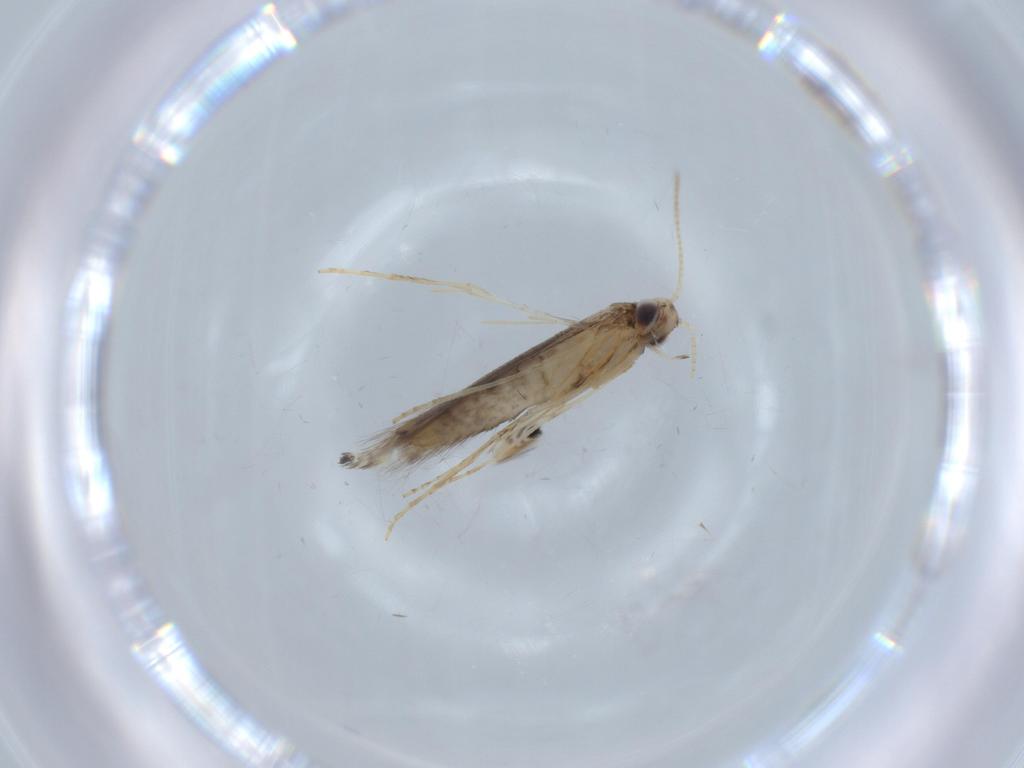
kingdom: Animalia
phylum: Arthropoda
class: Insecta
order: Lepidoptera
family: Gracillariidae
